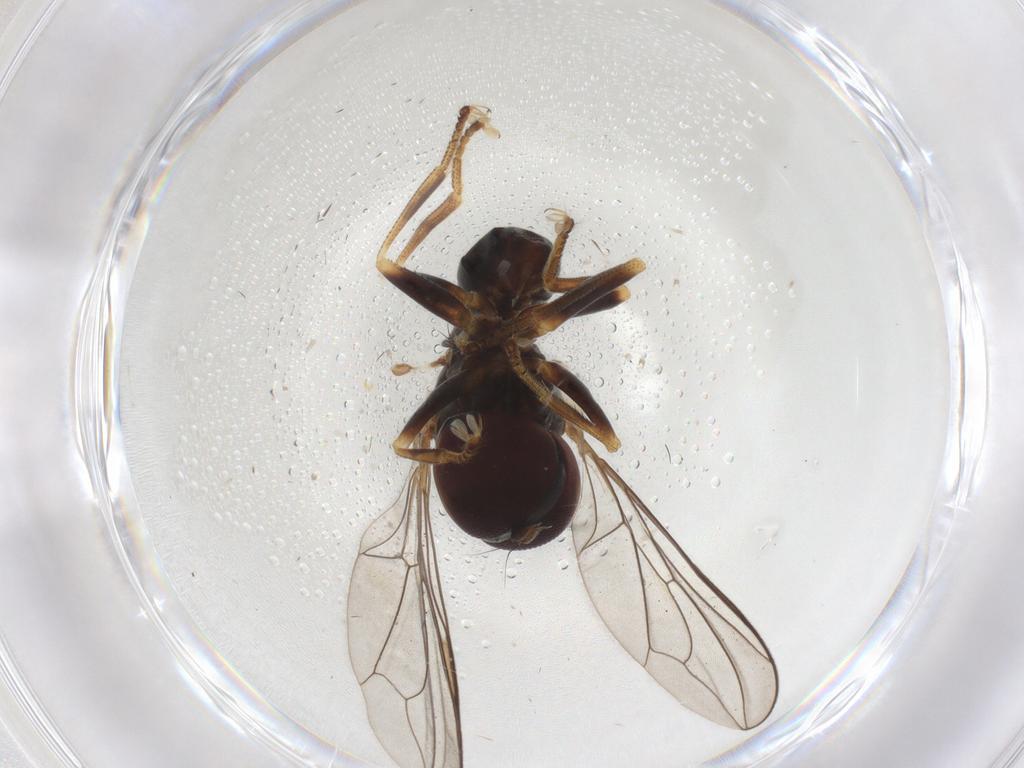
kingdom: Animalia
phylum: Arthropoda
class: Insecta
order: Diptera
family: Pipunculidae
